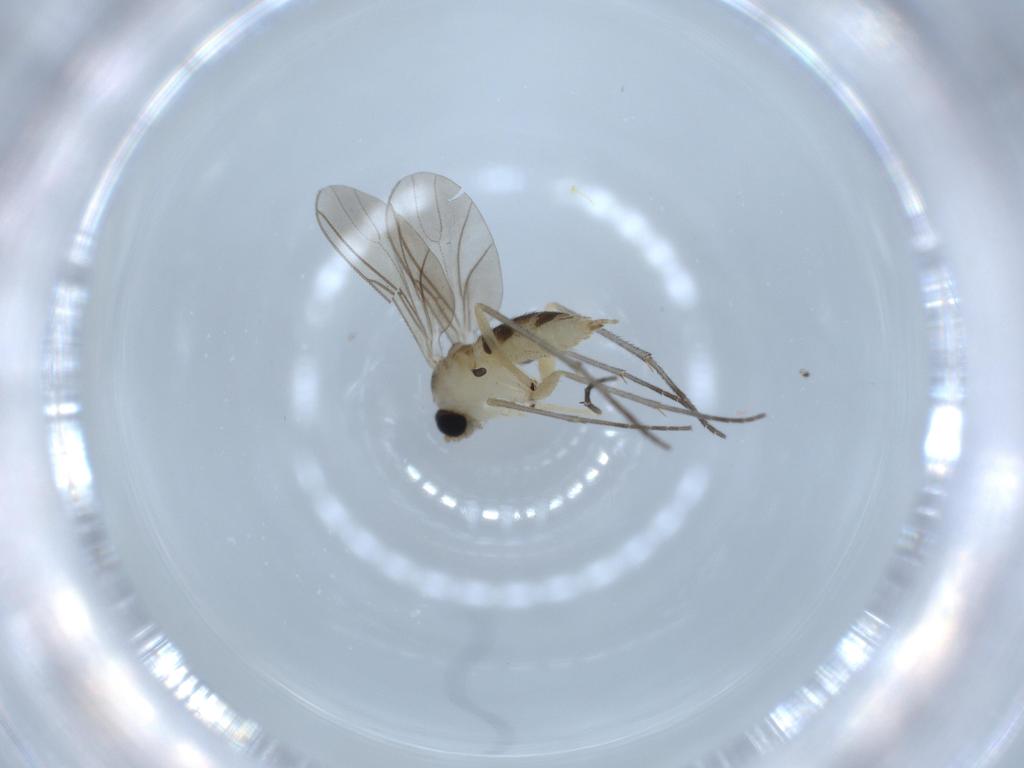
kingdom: Animalia
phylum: Arthropoda
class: Insecta
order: Diptera
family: Sciaridae
